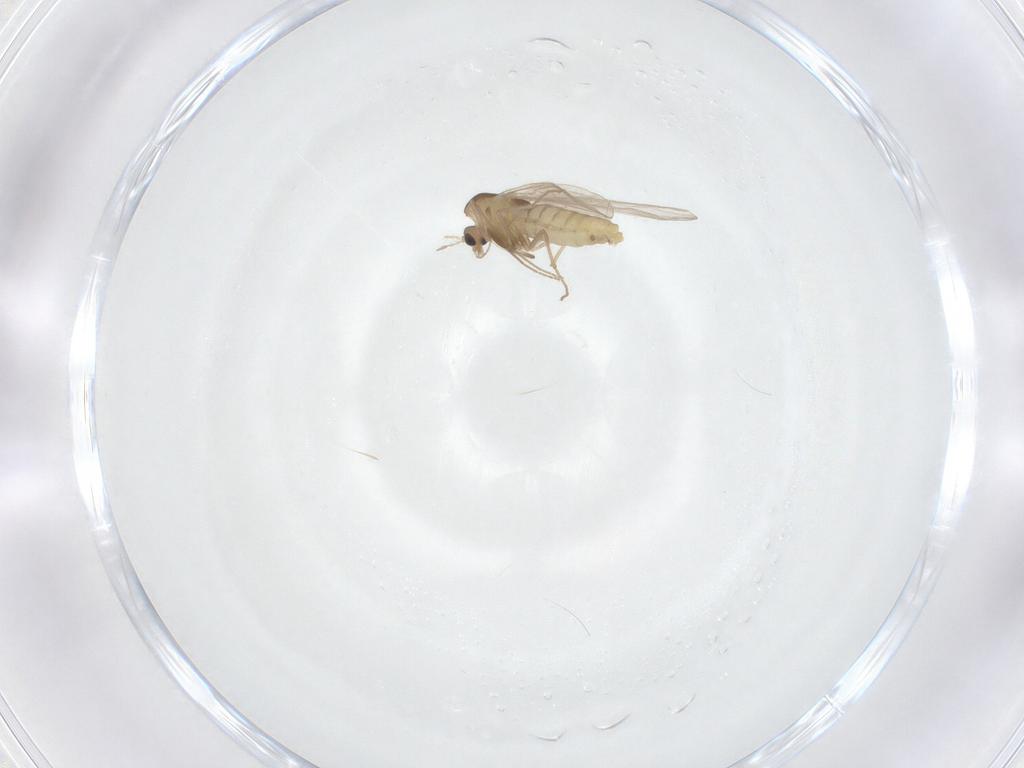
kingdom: Animalia
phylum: Arthropoda
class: Insecta
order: Diptera
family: Chironomidae
